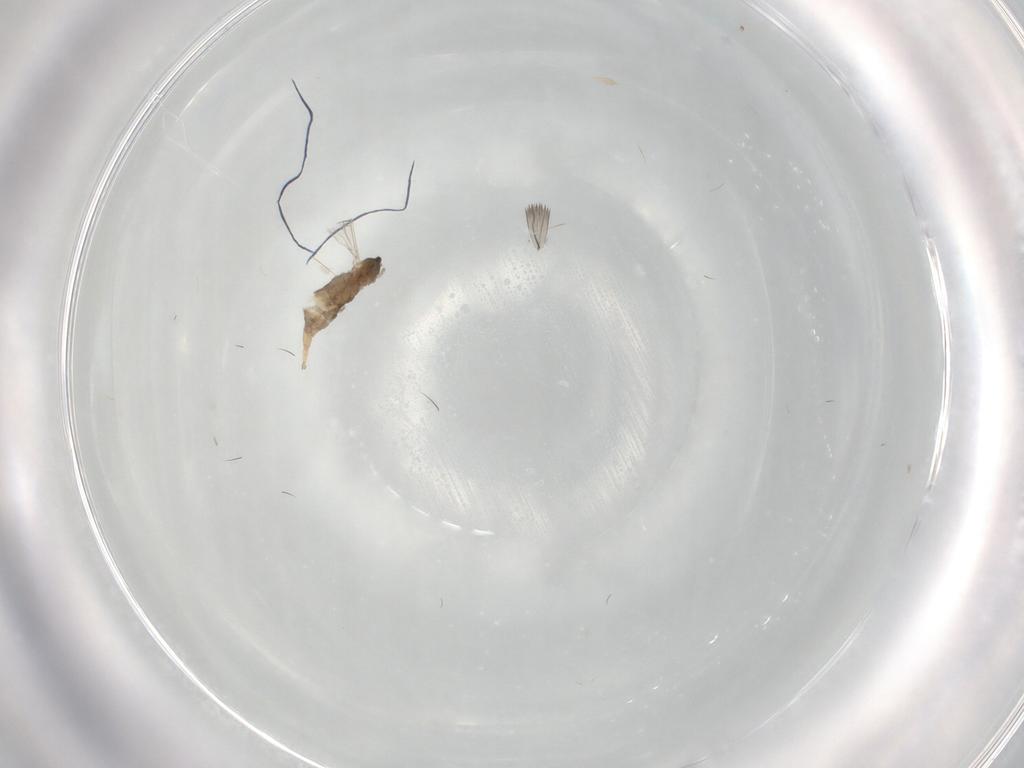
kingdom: Animalia
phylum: Arthropoda
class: Insecta
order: Diptera
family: Cecidomyiidae
